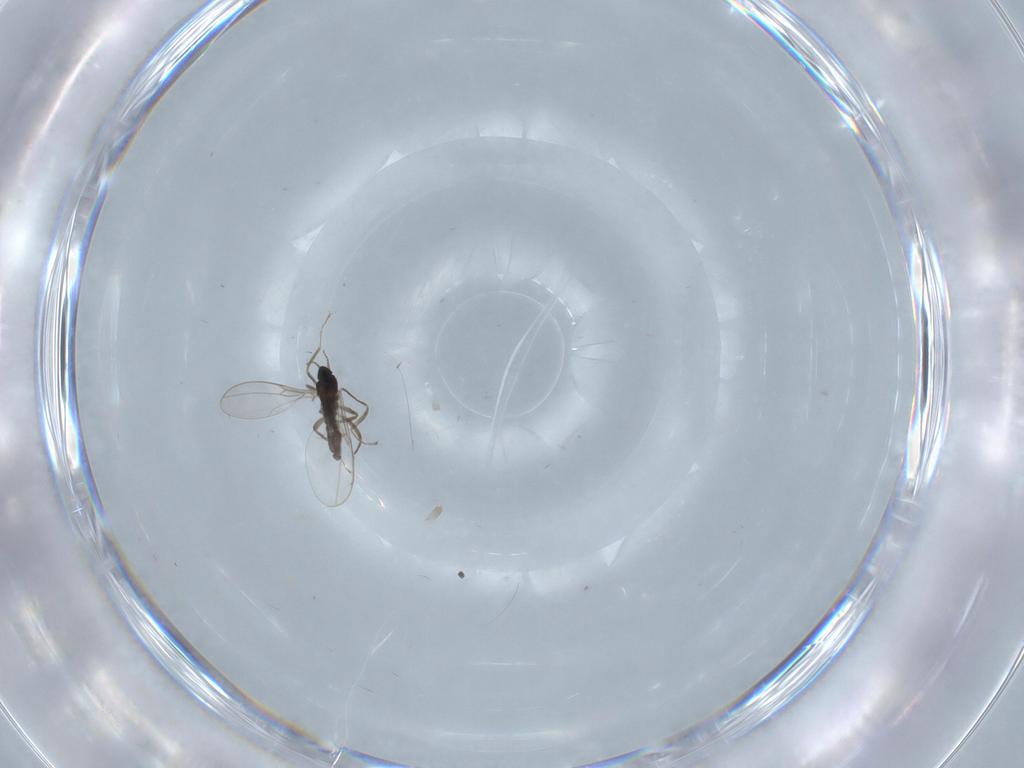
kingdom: Animalia
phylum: Arthropoda
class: Insecta
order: Diptera
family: Cecidomyiidae
